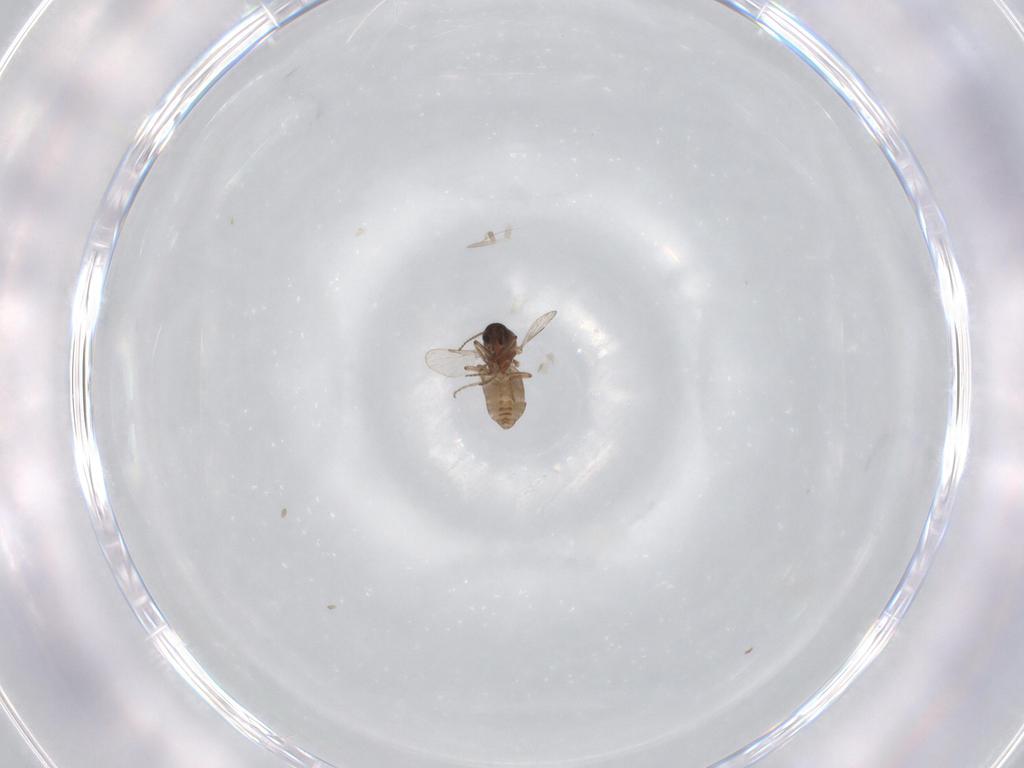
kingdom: Animalia
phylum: Arthropoda
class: Insecta
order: Diptera
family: Ceratopogonidae
